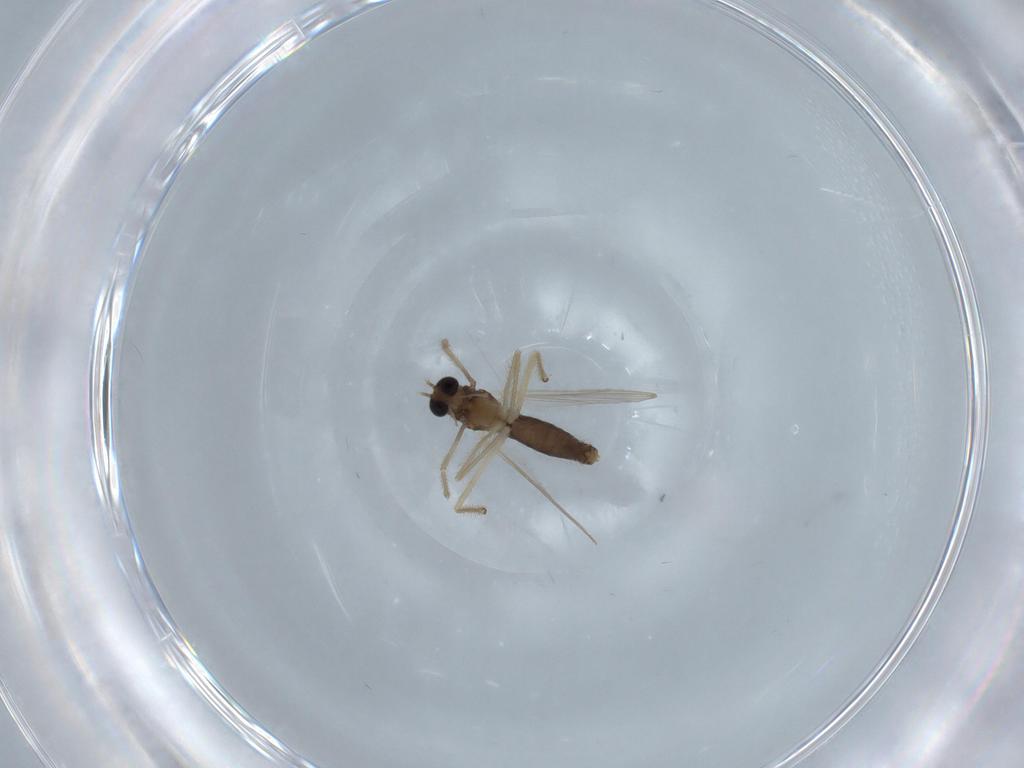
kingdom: Animalia
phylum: Arthropoda
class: Insecta
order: Diptera
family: Chironomidae
